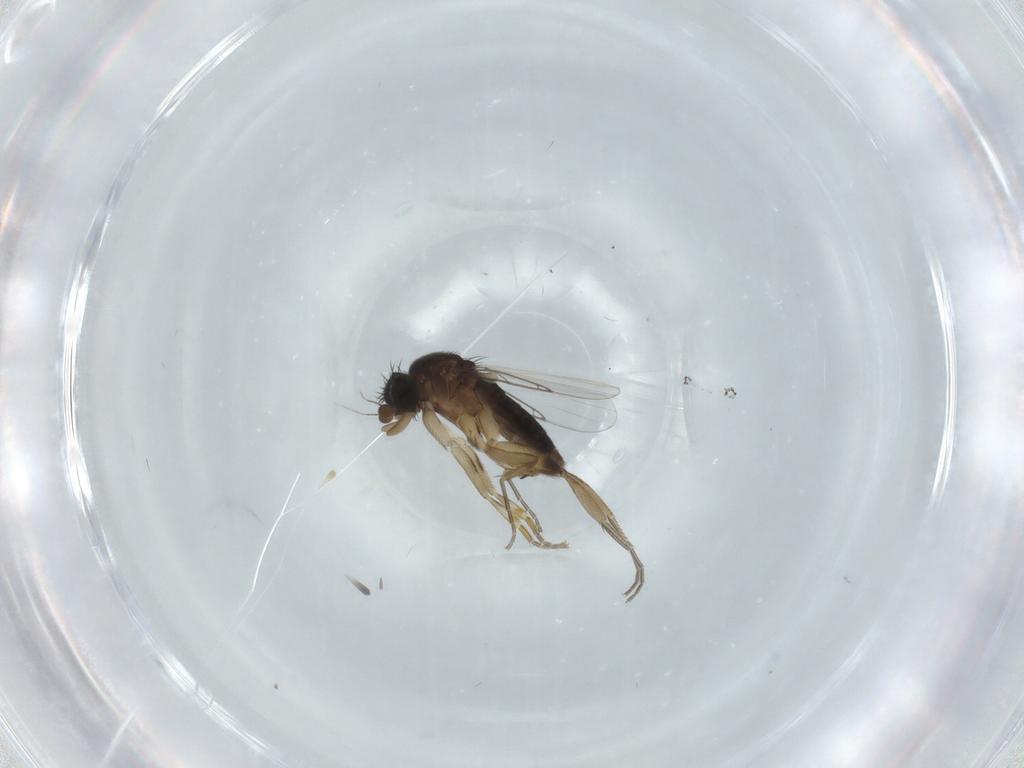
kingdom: Animalia
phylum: Arthropoda
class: Insecta
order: Diptera
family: Phoridae
